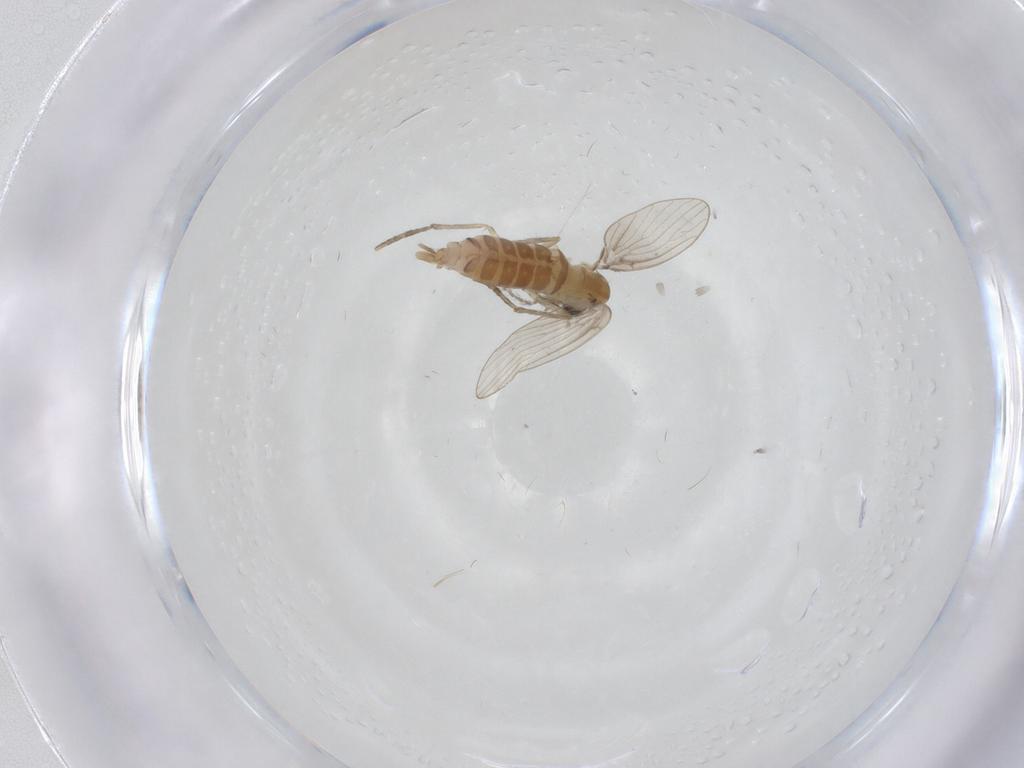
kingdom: Animalia
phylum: Arthropoda
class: Insecta
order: Diptera
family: Psychodidae
